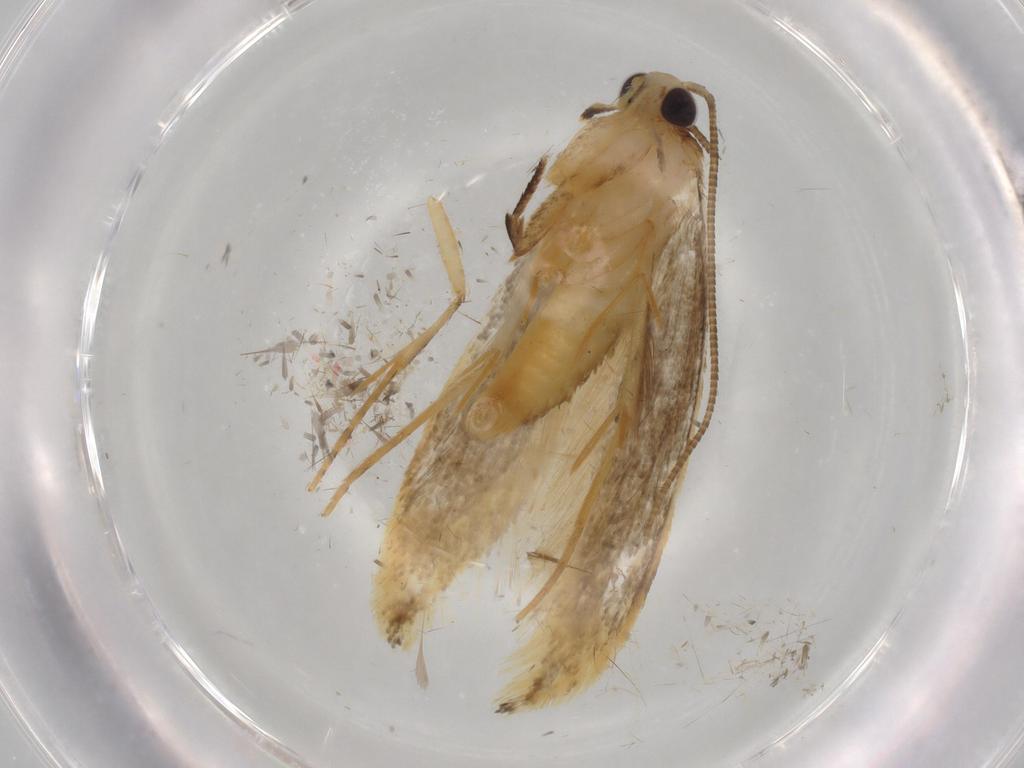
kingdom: Animalia
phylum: Arthropoda
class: Insecta
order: Lepidoptera
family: Tineidae
